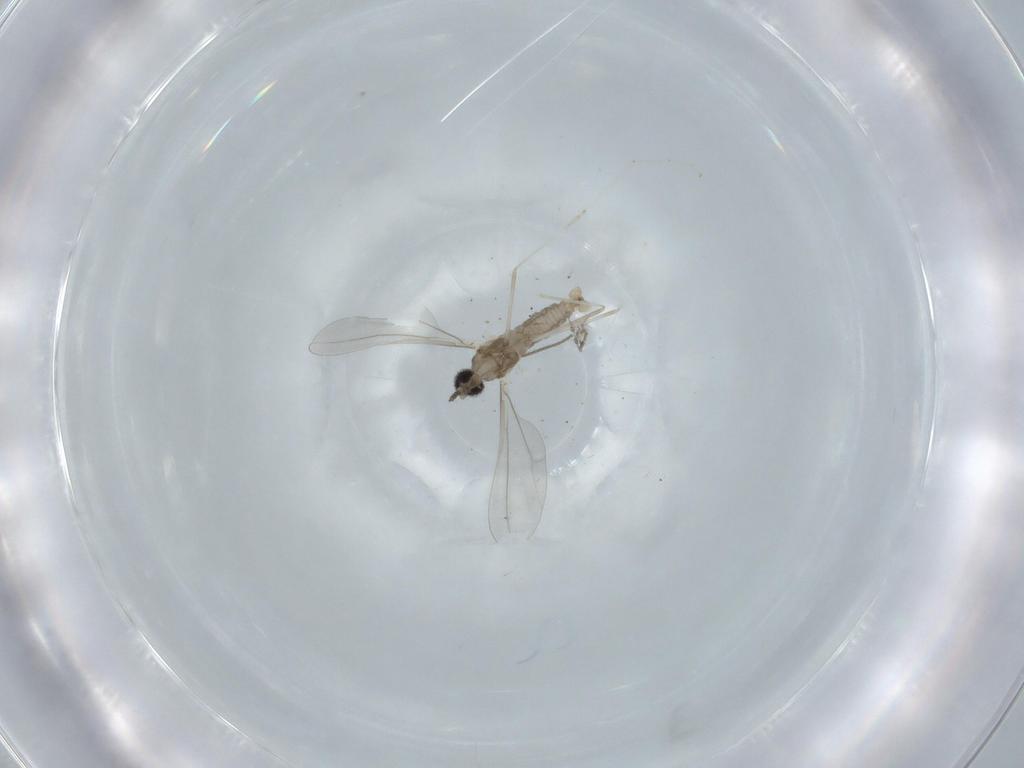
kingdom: Animalia
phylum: Arthropoda
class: Insecta
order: Diptera
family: Cecidomyiidae
